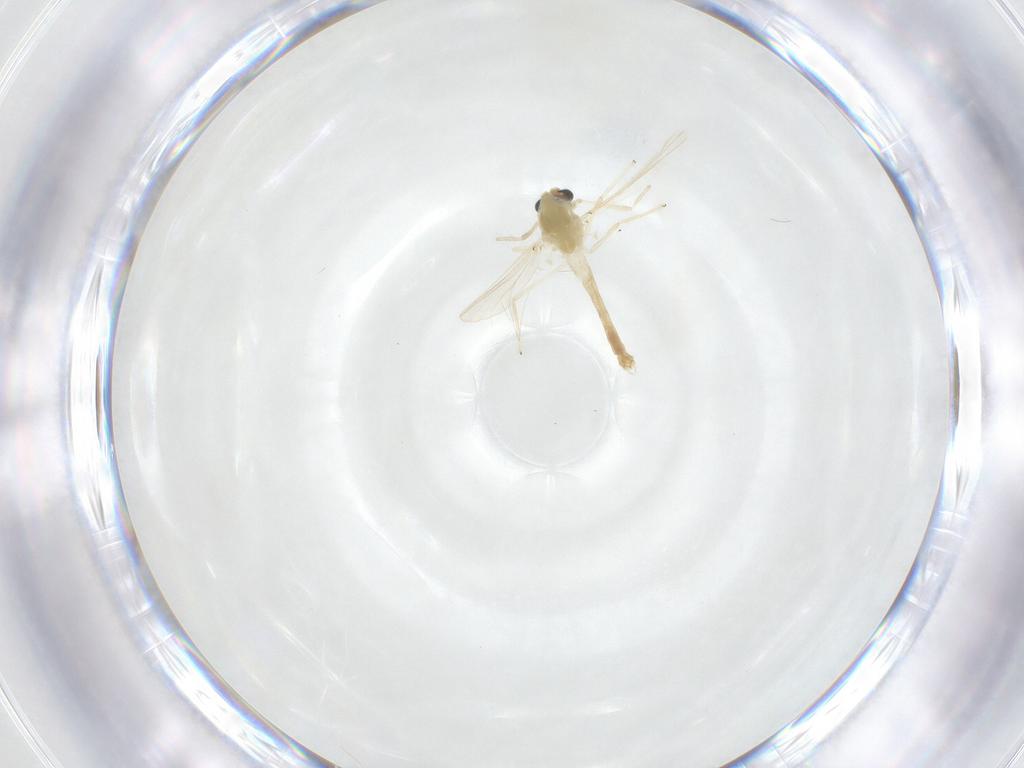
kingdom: Animalia
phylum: Arthropoda
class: Insecta
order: Diptera
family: Chironomidae
